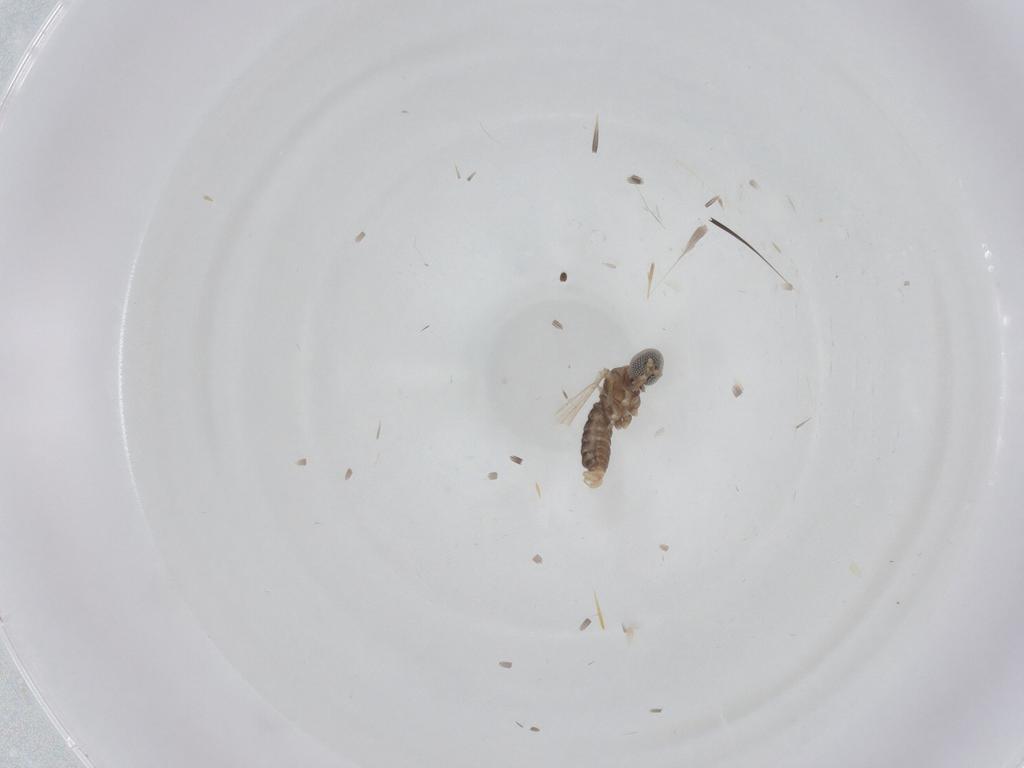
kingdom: Animalia
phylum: Arthropoda
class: Insecta
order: Diptera
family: Cecidomyiidae
